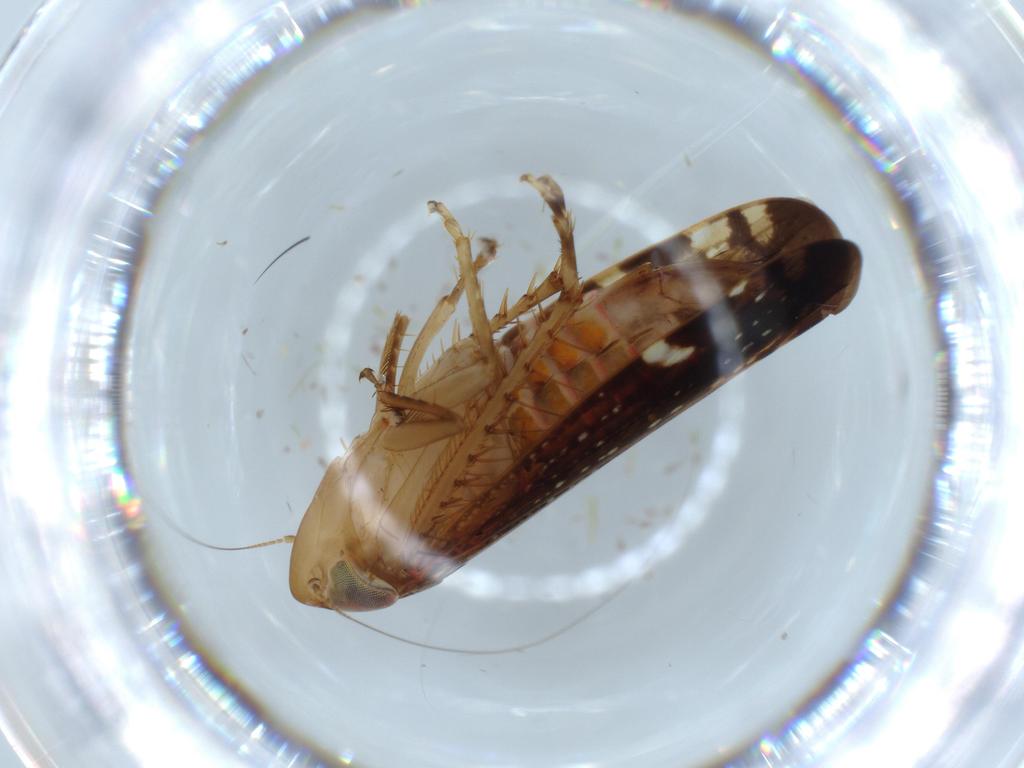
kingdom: Animalia
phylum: Arthropoda
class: Insecta
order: Hemiptera
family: Cicadellidae
